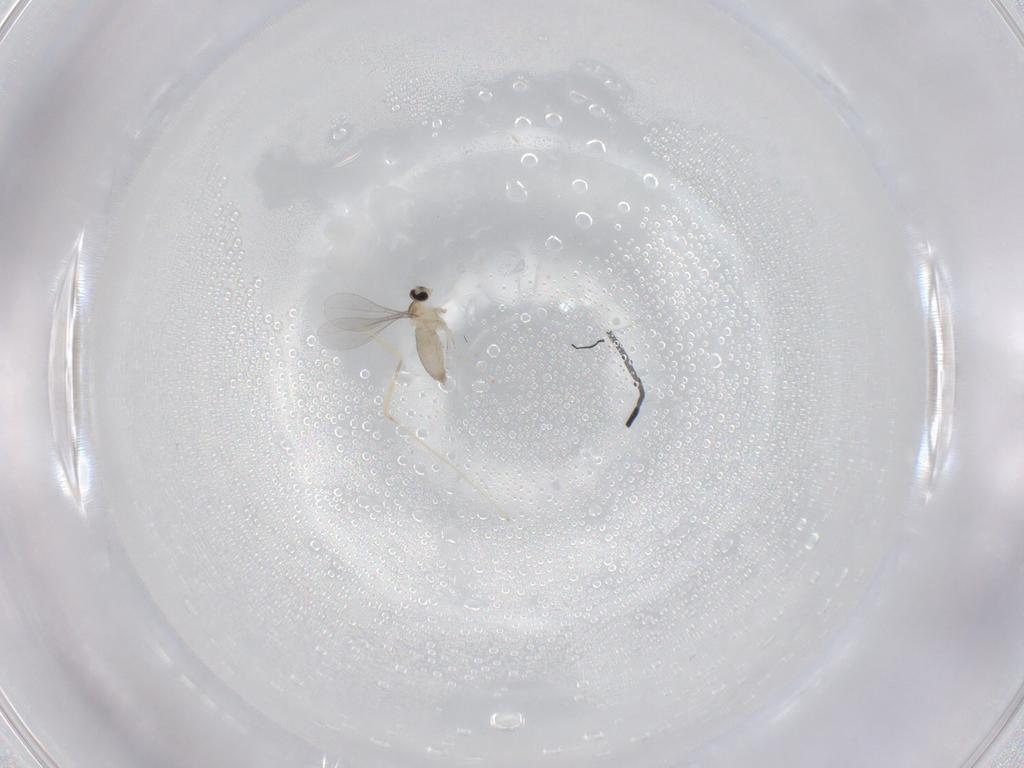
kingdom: Animalia
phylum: Arthropoda
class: Insecta
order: Diptera
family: Cecidomyiidae
